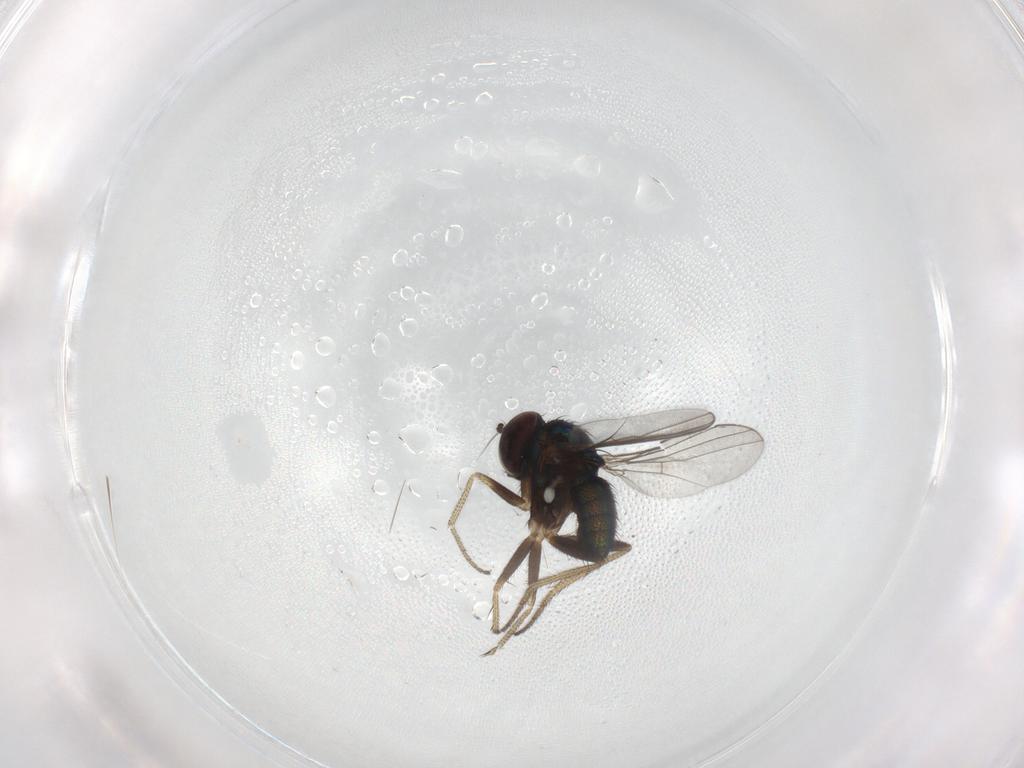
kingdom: Animalia
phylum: Arthropoda
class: Insecta
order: Diptera
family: Dolichopodidae
